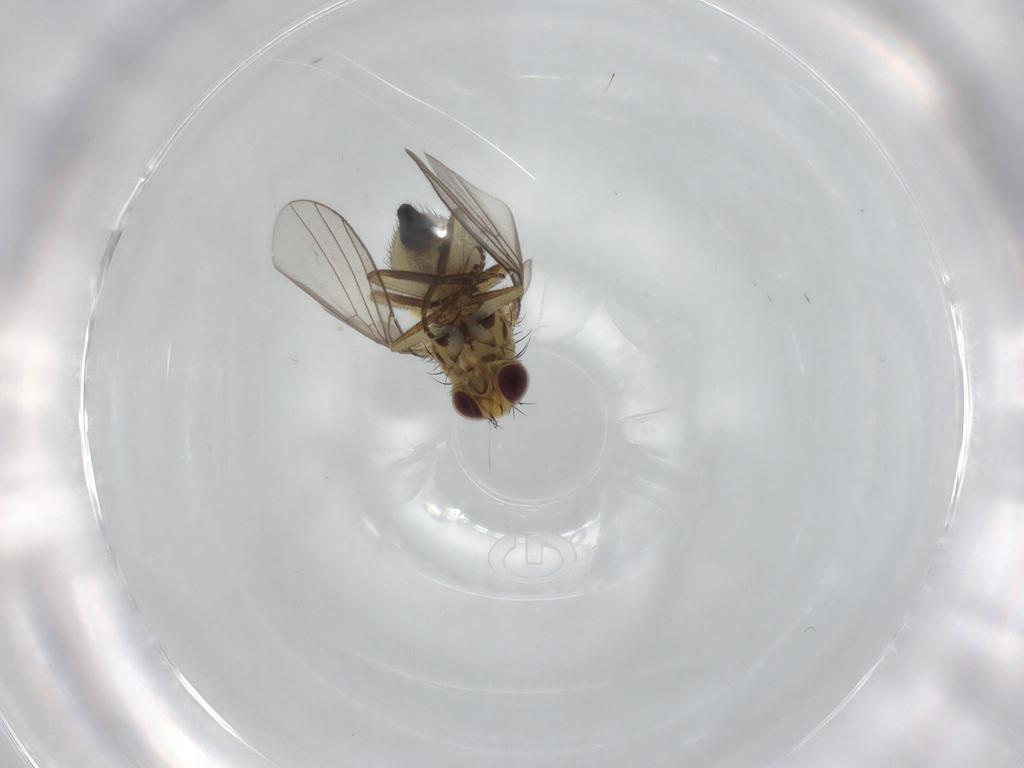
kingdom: Animalia
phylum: Arthropoda
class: Insecta
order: Diptera
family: Agromyzidae
